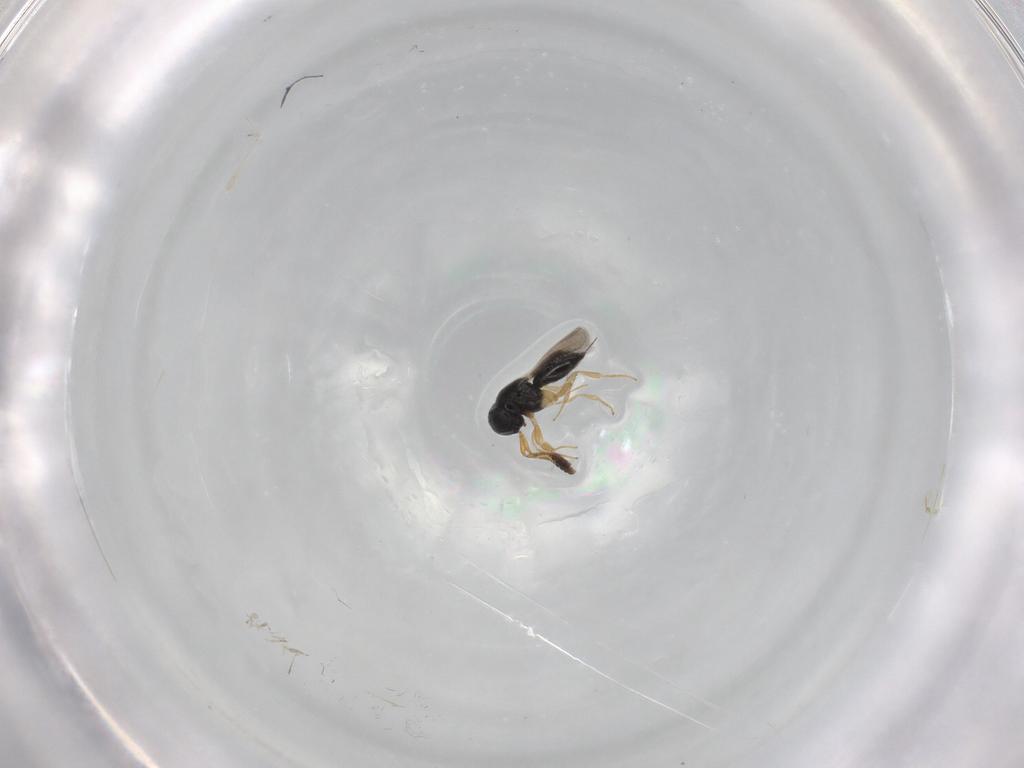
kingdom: Animalia
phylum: Arthropoda
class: Insecta
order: Hymenoptera
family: Scelionidae
